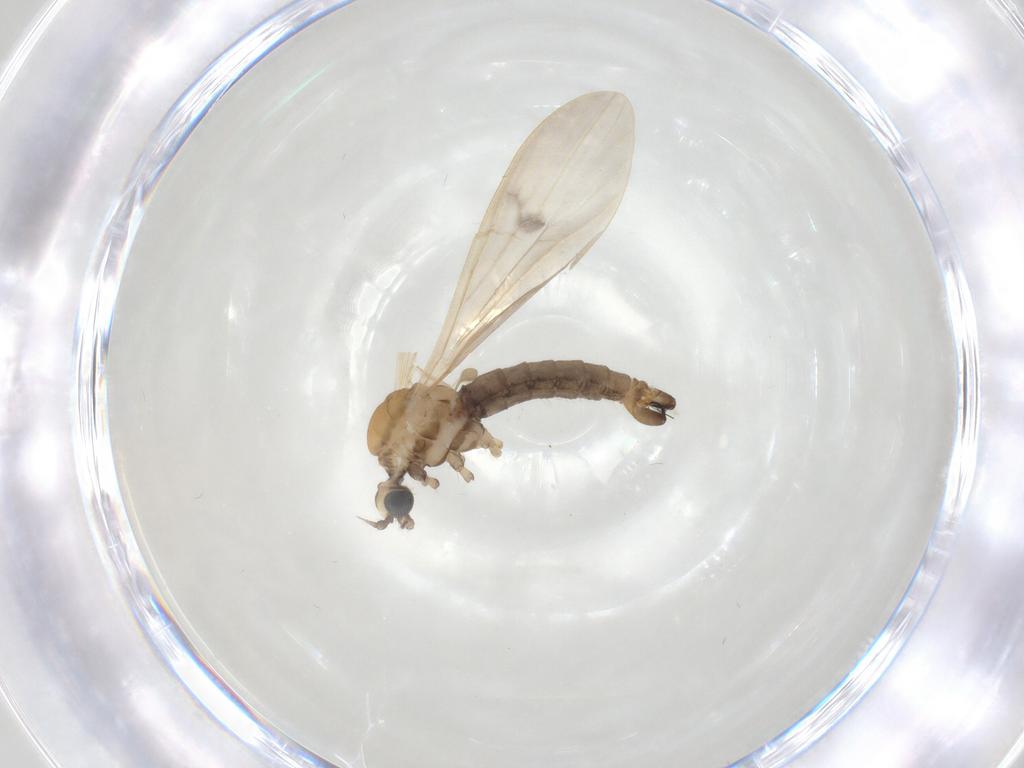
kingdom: Animalia
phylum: Arthropoda
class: Insecta
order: Diptera
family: Limoniidae
